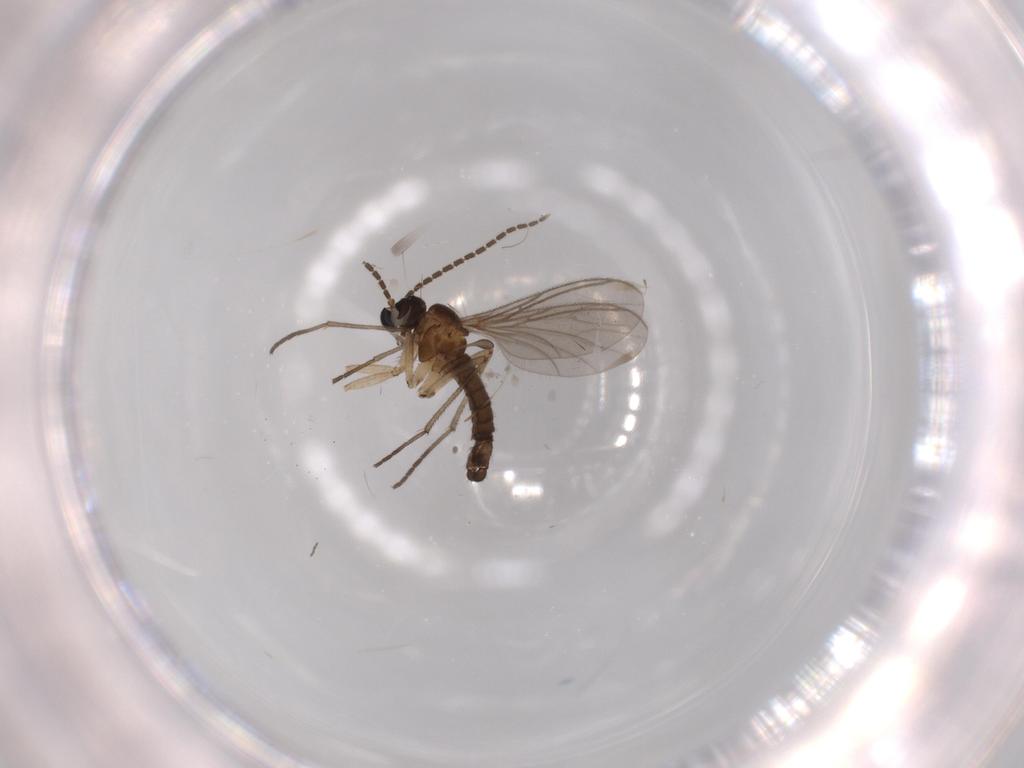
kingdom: Animalia
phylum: Arthropoda
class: Insecta
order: Diptera
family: Sciaridae
